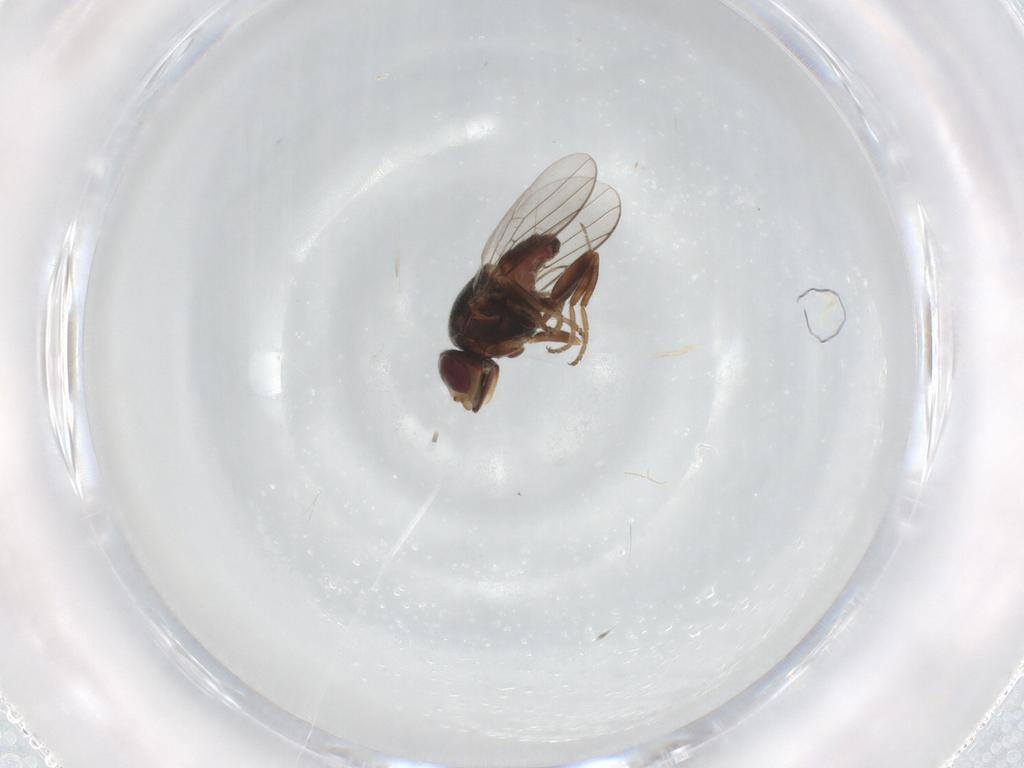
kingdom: Animalia
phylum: Arthropoda
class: Insecta
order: Diptera
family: Chloropidae
